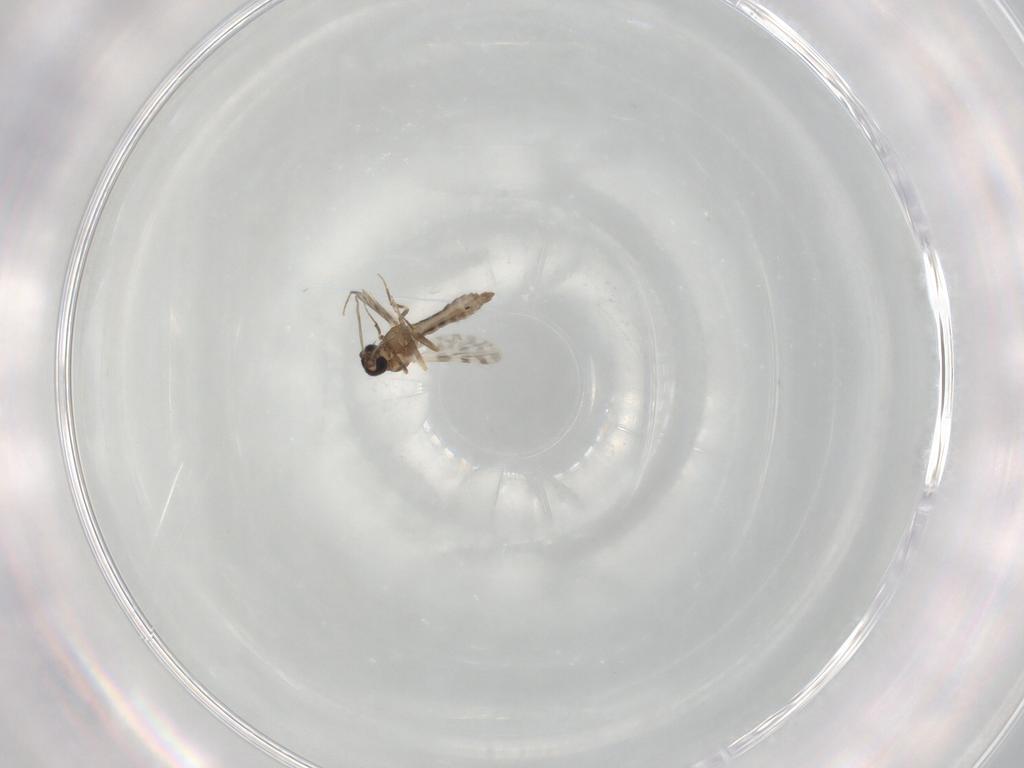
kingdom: Animalia
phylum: Arthropoda
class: Insecta
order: Diptera
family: Ceratopogonidae
